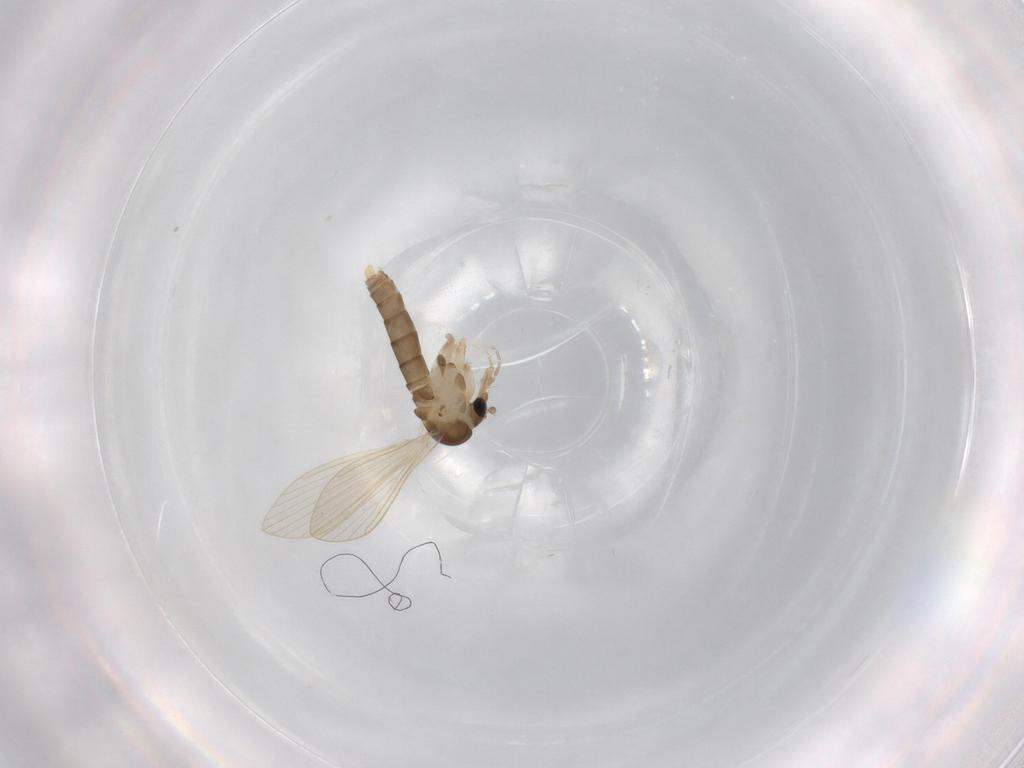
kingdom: Animalia
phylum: Arthropoda
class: Insecta
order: Diptera
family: Psychodidae
